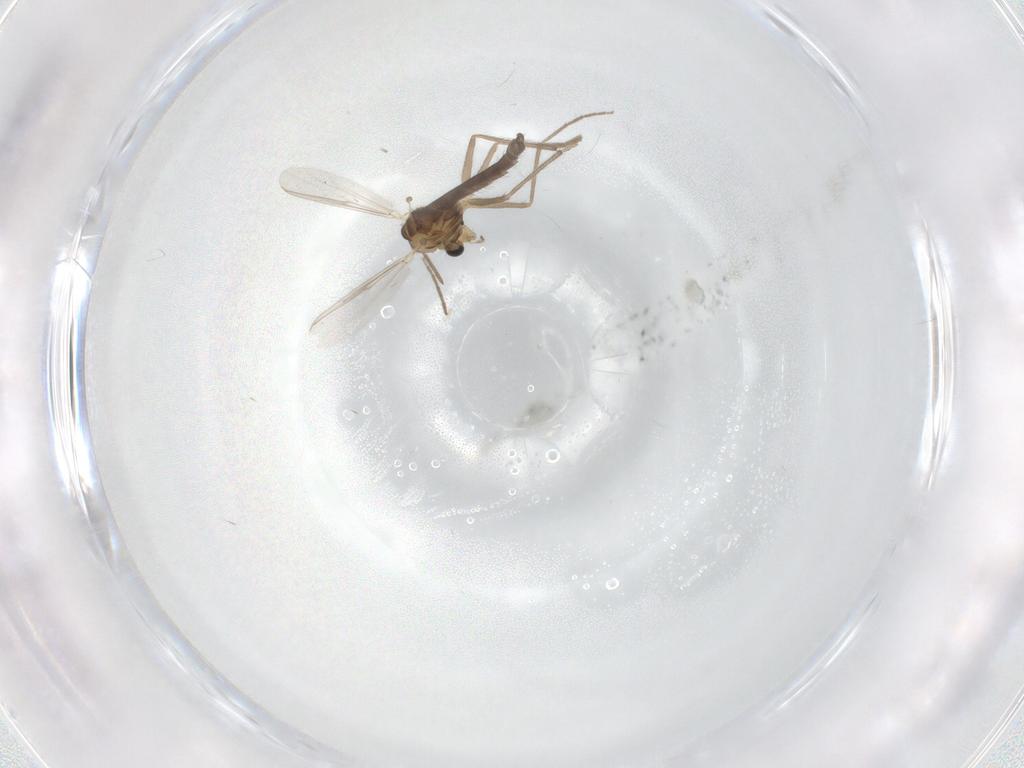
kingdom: Animalia
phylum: Arthropoda
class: Insecta
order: Diptera
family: Chironomidae
